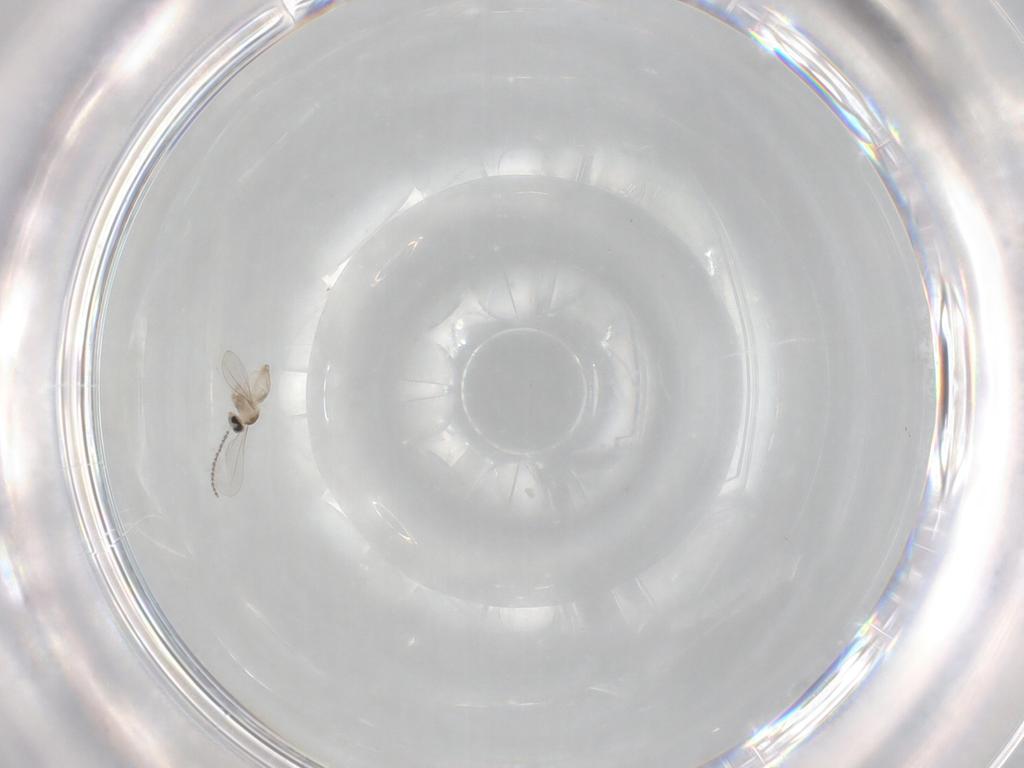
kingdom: Animalia
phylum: Arthropoda
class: Insecta
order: Diptera
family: Cecidomyiidae
